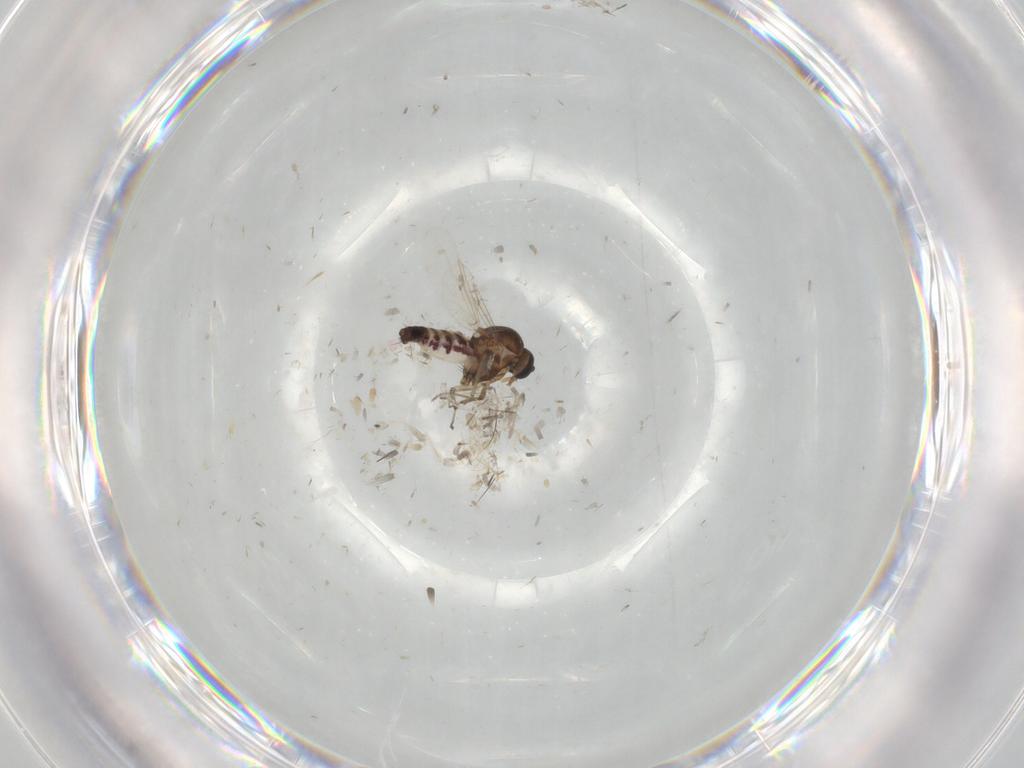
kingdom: Animalia
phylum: Arthropoda
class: Insecta
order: Diptera
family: Ceratopogonidae
